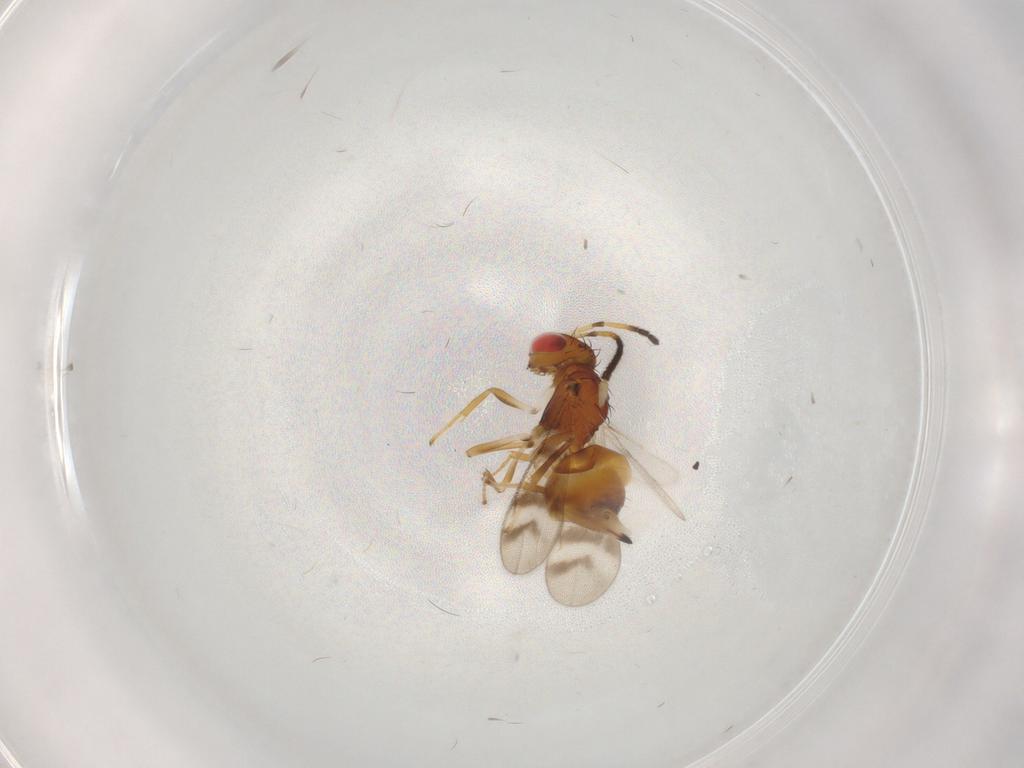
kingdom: Animalia
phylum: Arthropoda
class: Insecta
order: Hymenoptera
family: Diparidae
